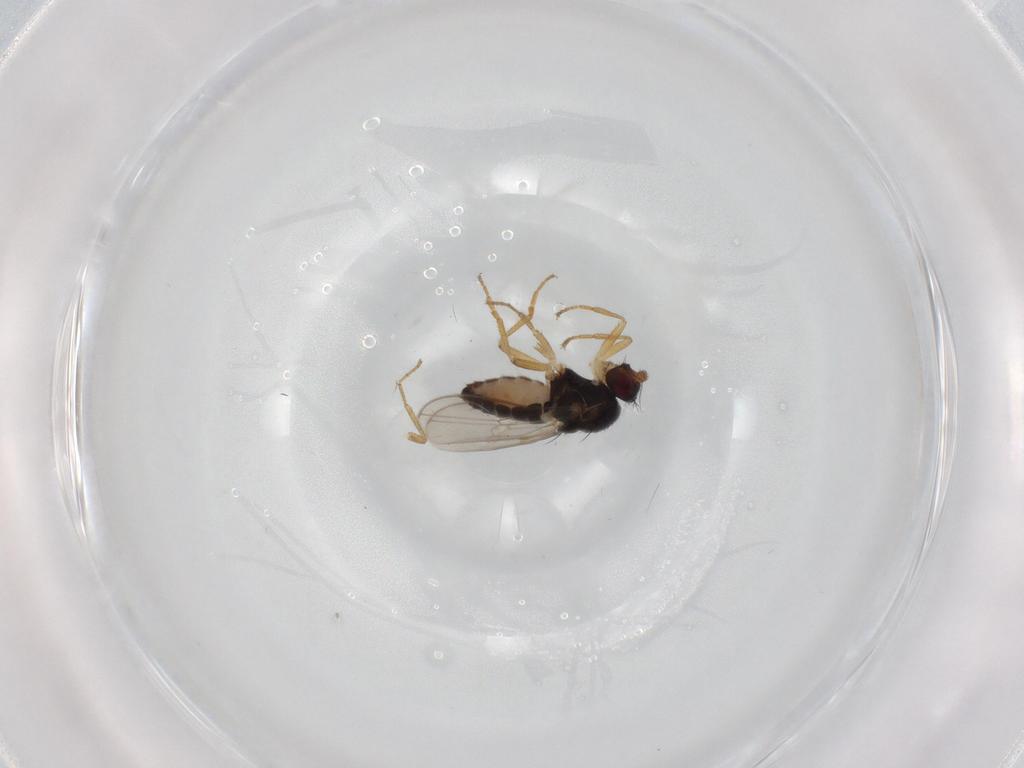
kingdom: Animalia
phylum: Arthropoda
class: Insecta
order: Diptera
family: Sphaeroceridae
